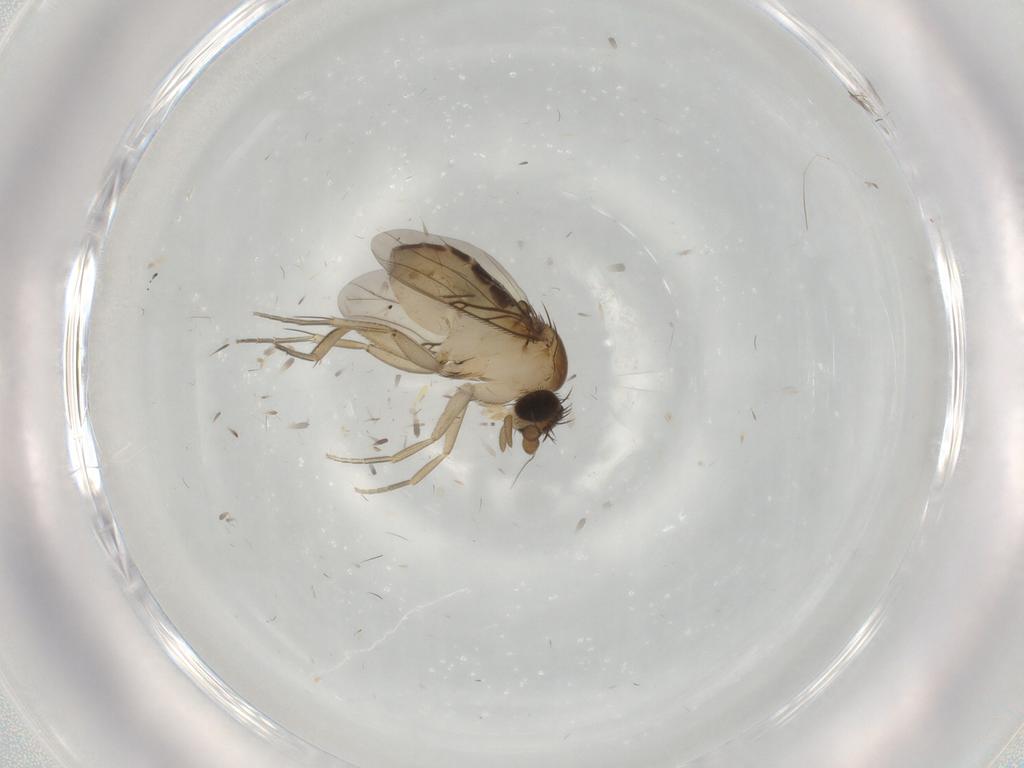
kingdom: Animalia
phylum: Arthropoda
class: Insecta
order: Diptera
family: Phoridae
